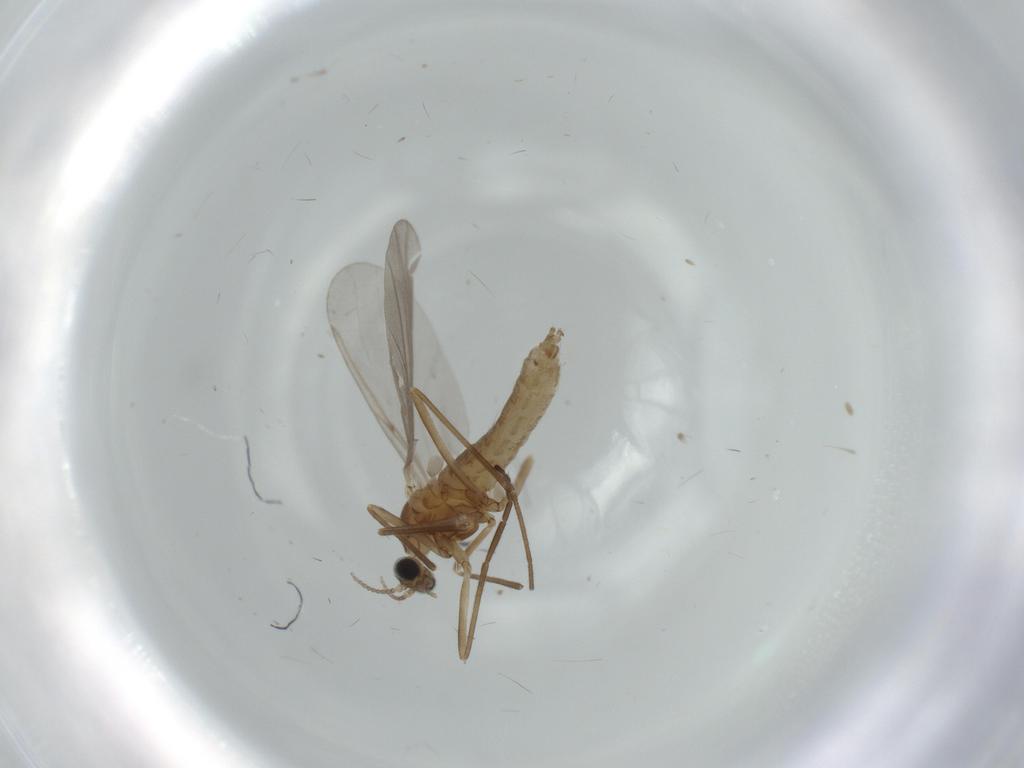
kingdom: Animalia
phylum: Arthropoda
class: Insecta
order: Diptera
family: Cecidomyiidae
